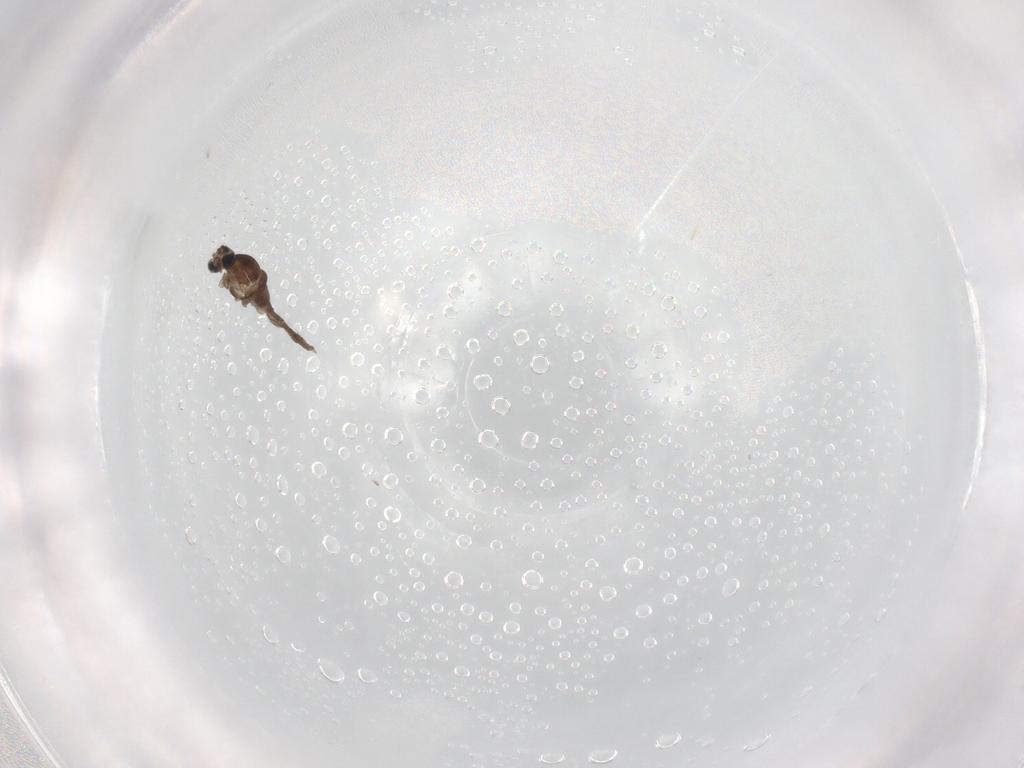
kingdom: Animalia
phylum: Arthropoda
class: Insecta
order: Diptera
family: Cecidomyiidae
